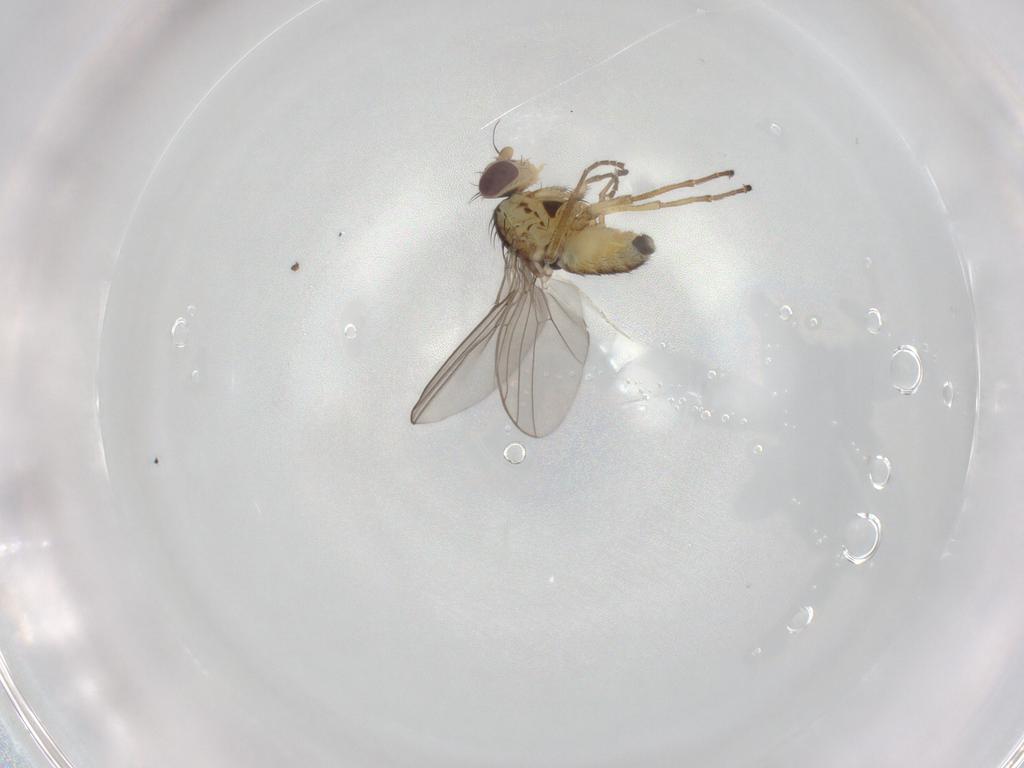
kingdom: Animalia
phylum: Arthropoda
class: Insecta
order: Diptera
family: Agromyzidae
